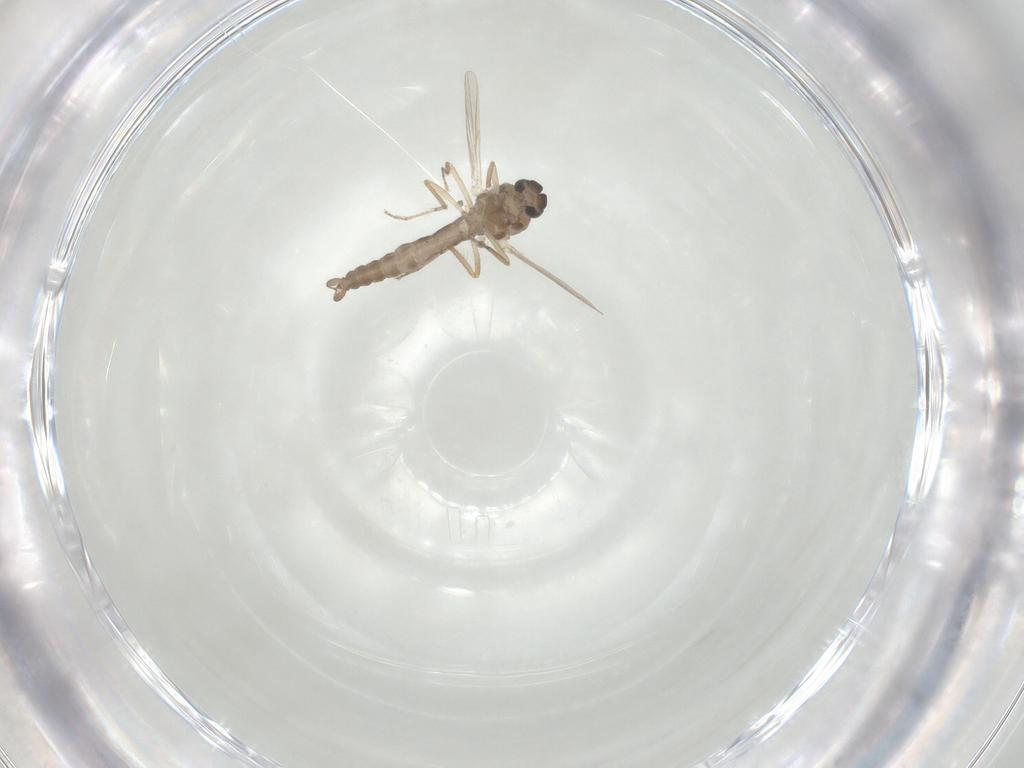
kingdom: Animalia
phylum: Arthropoda
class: Insecta
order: Diptera
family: Ceratopogonidae
